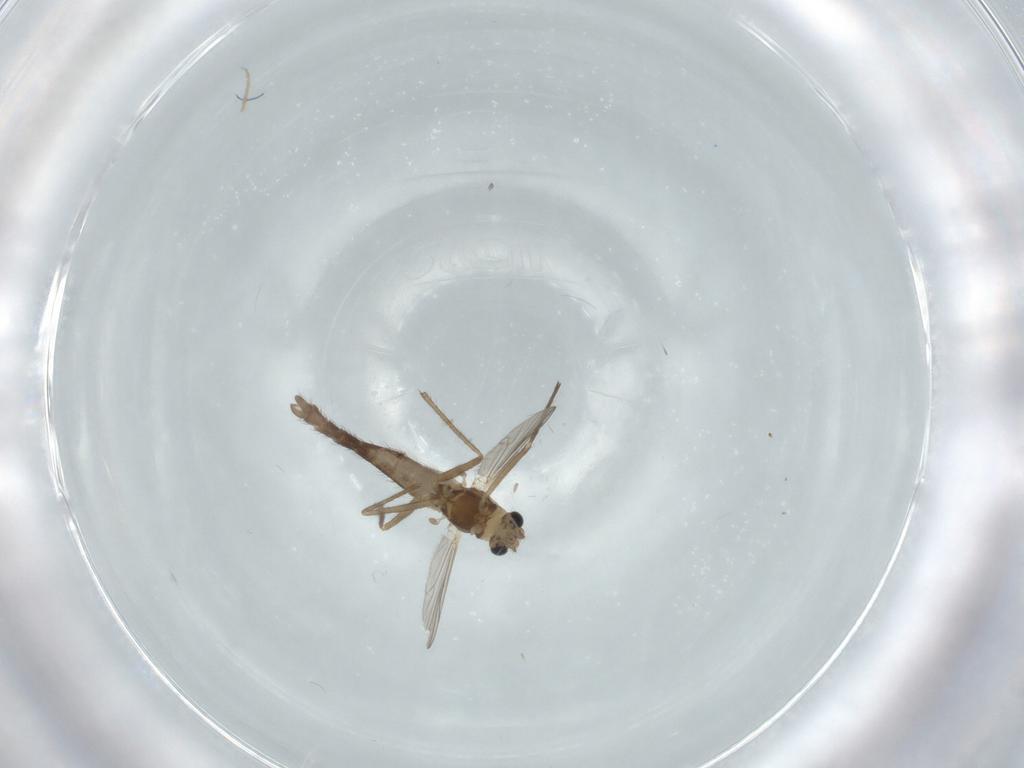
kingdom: Animalia
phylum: Arthropoda
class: Insecta
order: Diptera
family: Chironomidae
